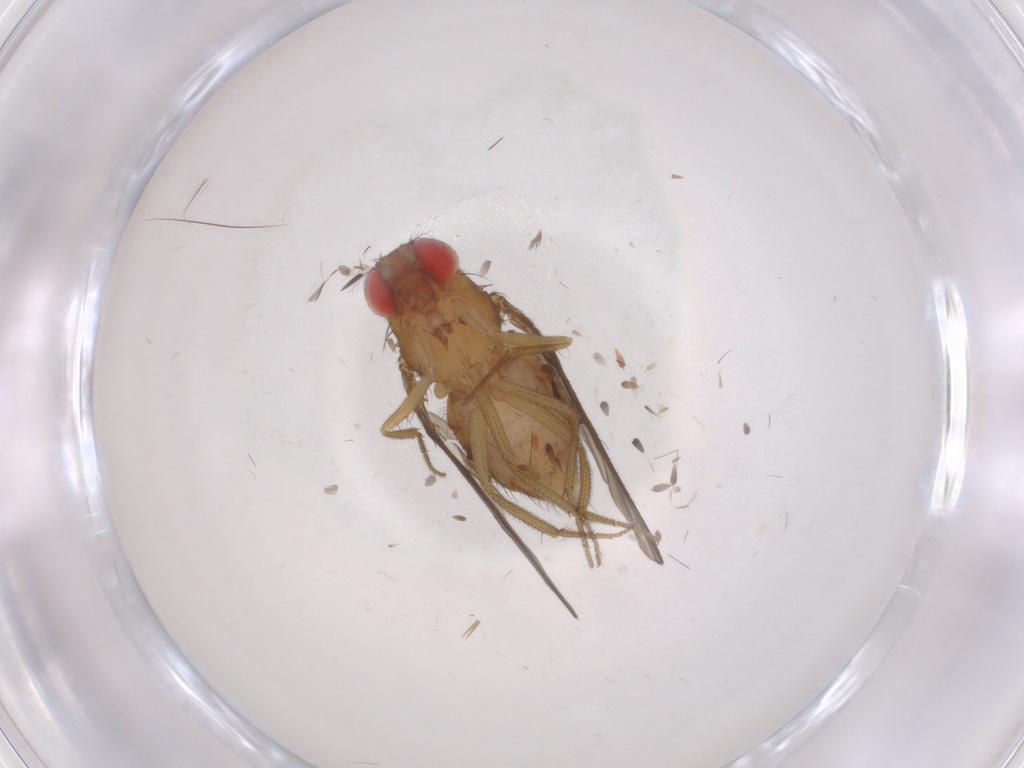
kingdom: Animalia
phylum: Arthropoda
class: Insecta
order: Diptera
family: Drosophilidae
